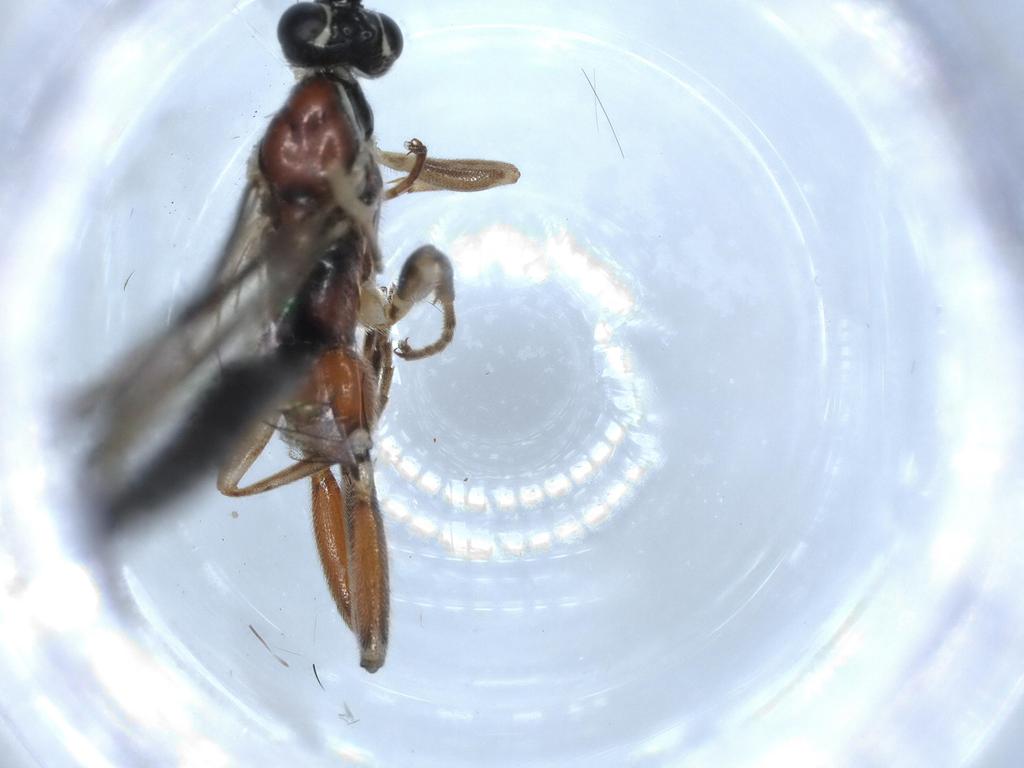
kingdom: Animalia
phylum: Arthropoda
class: Insecta
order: Hymenoptera
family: Ichneumonidae
